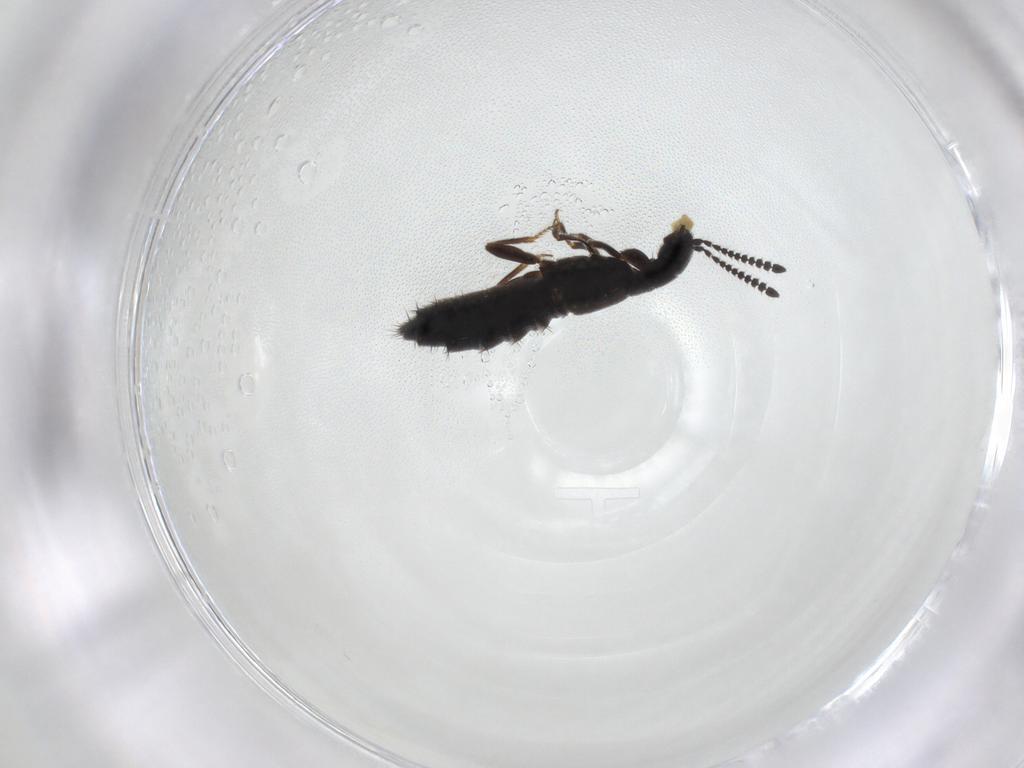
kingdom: Animalia
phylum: Arthropoda
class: Insecta
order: Coleoptera
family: Staphylinidae
